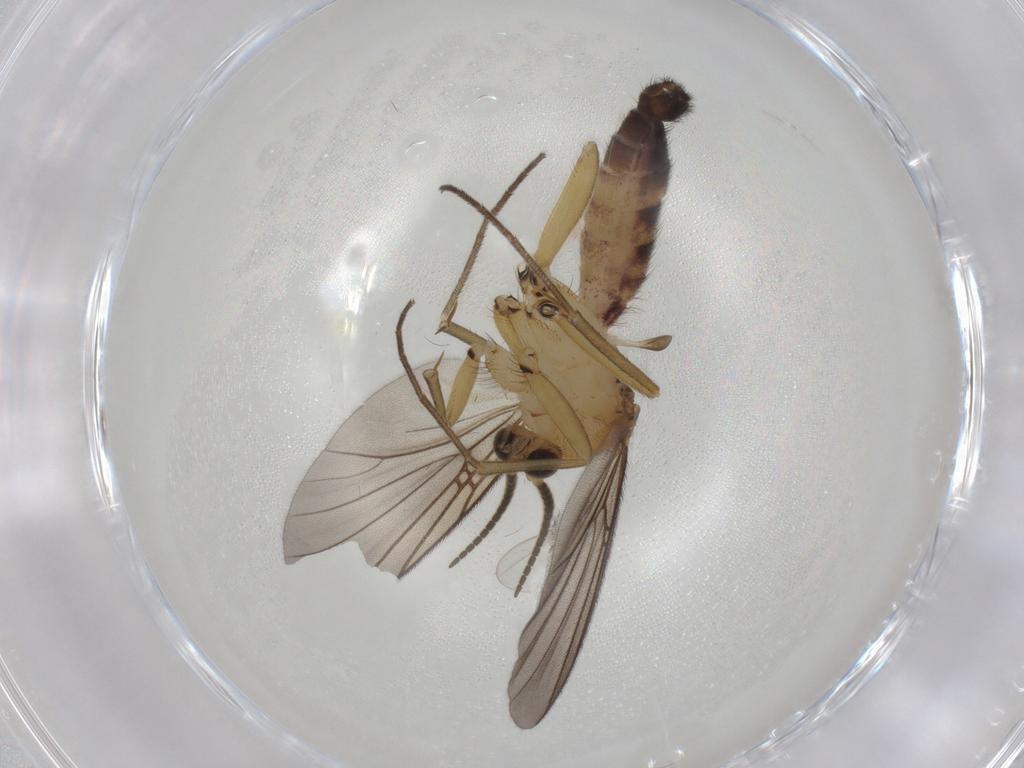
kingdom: Animalia
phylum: Arthropoda
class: Insecta
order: Diptera
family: Mycetophilidae
